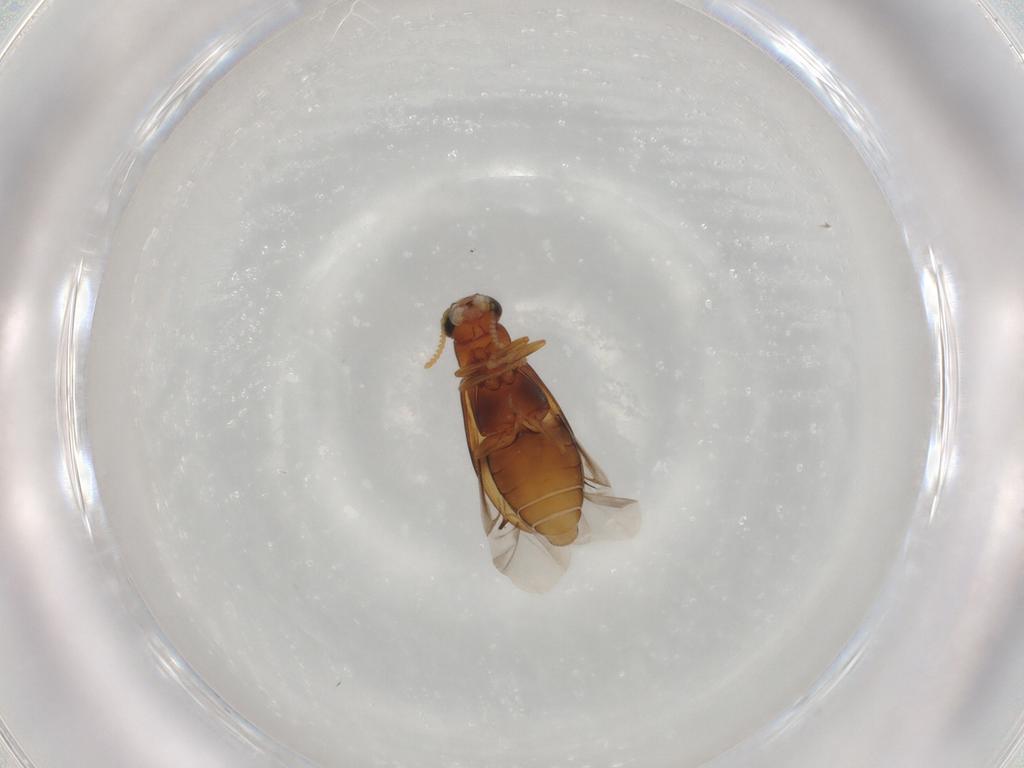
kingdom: Animalia
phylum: Arthropoda
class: Insecta
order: Coleoptera
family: Mycteridae
